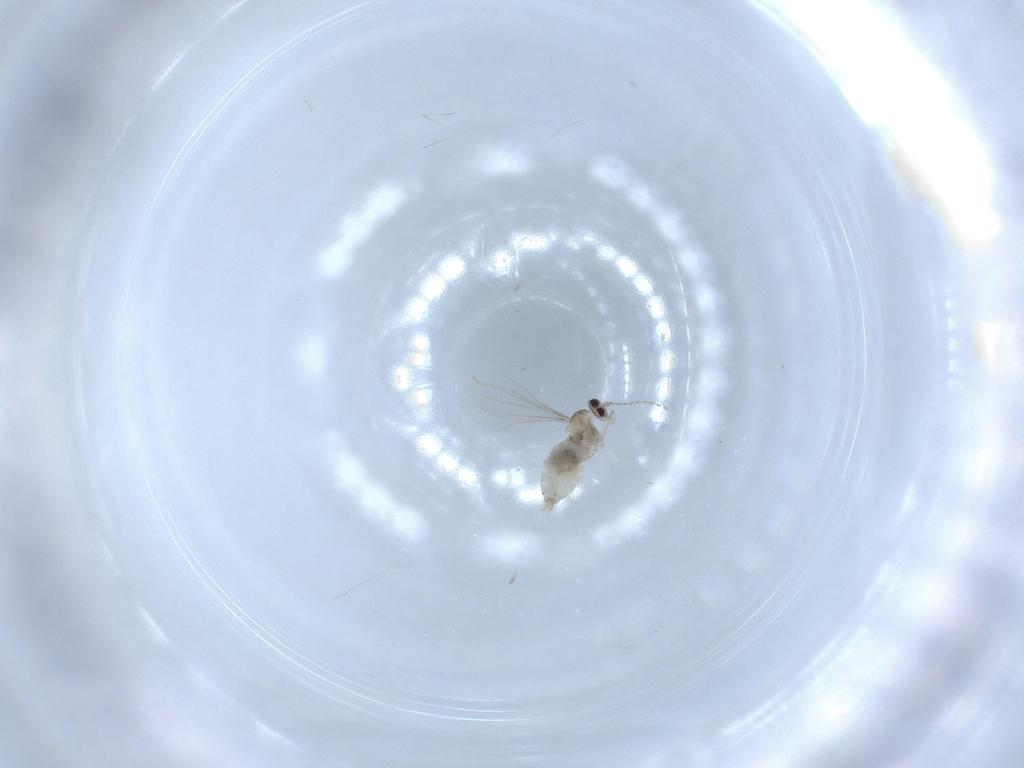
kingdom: Animalia
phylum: Arthropoda
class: Insecta
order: Diptera
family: Cecidomyiidae
